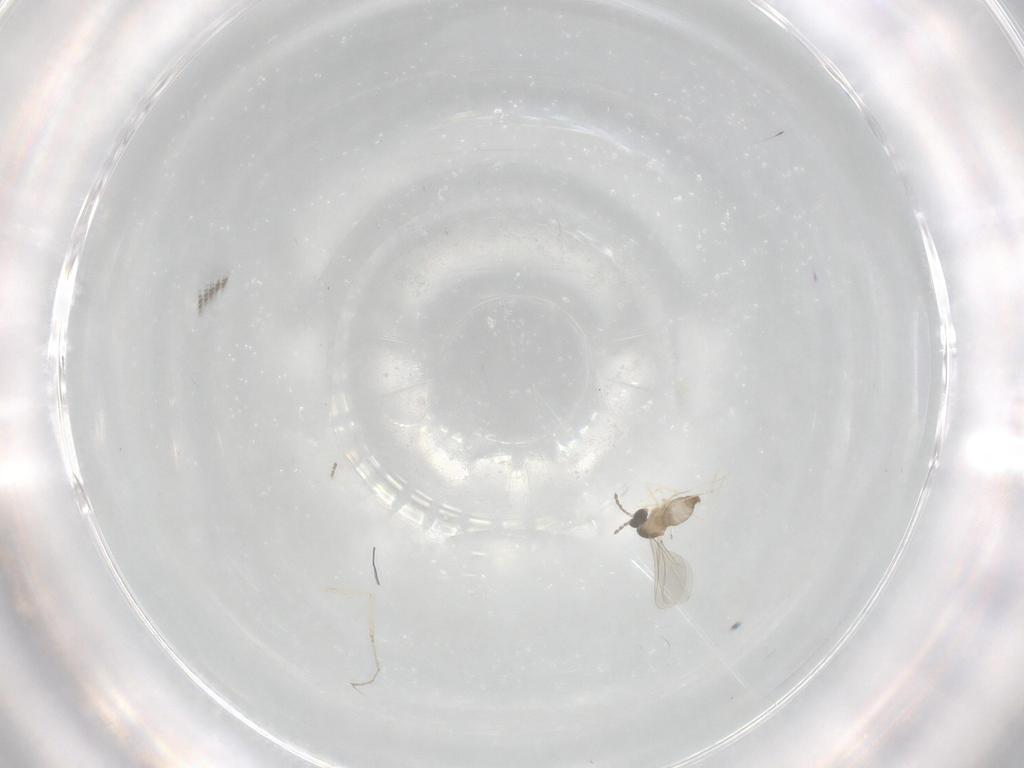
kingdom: Animalia
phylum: Arthropoda
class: Insecta
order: Diptera
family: Cecidomyiidae
